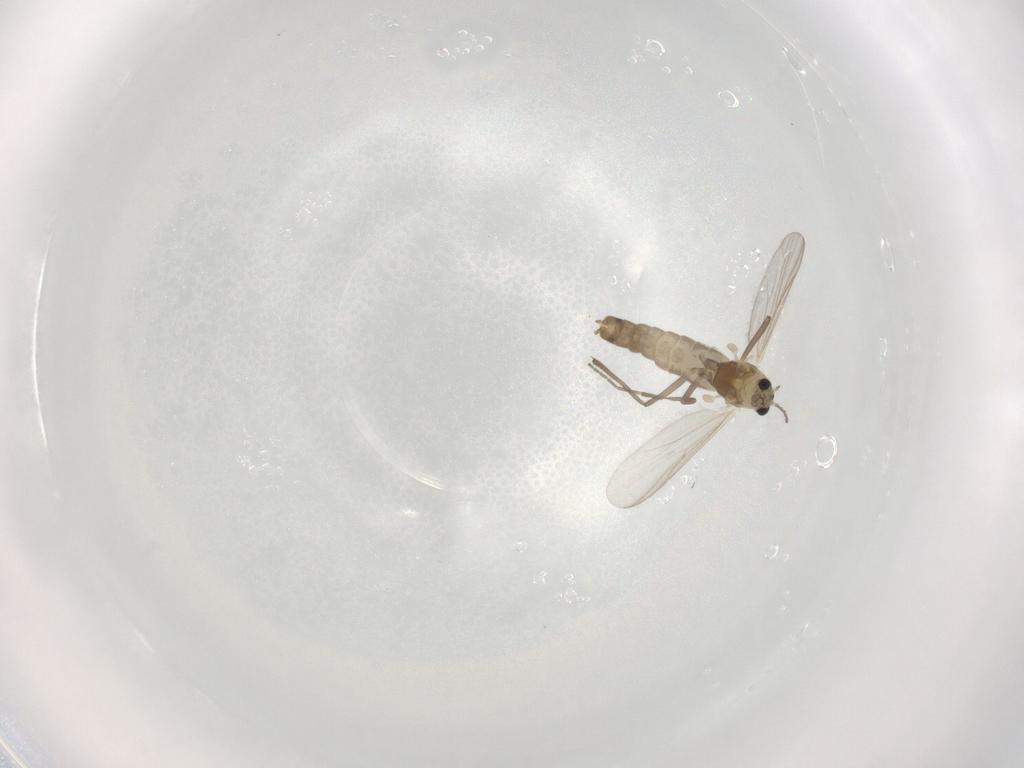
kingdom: Animalia
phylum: Arthropoda
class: Insecta
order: Diptera
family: Chironomidae
